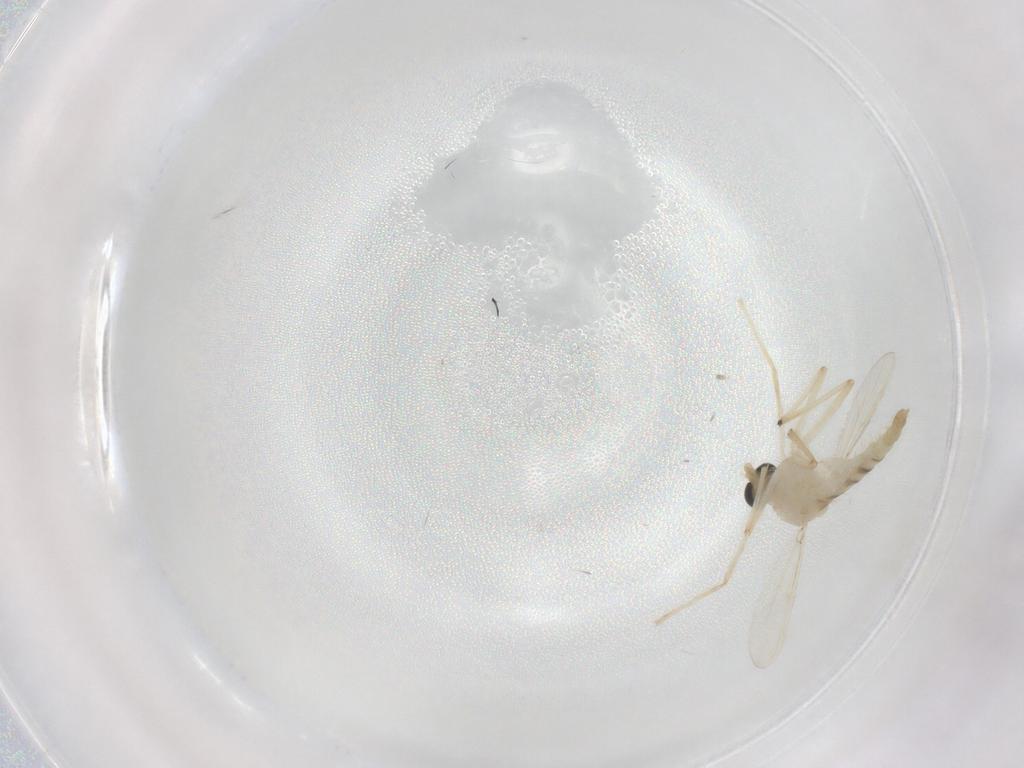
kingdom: Animalia
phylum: Arthropoda
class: Insecta
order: Diptera
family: Chironomidae
